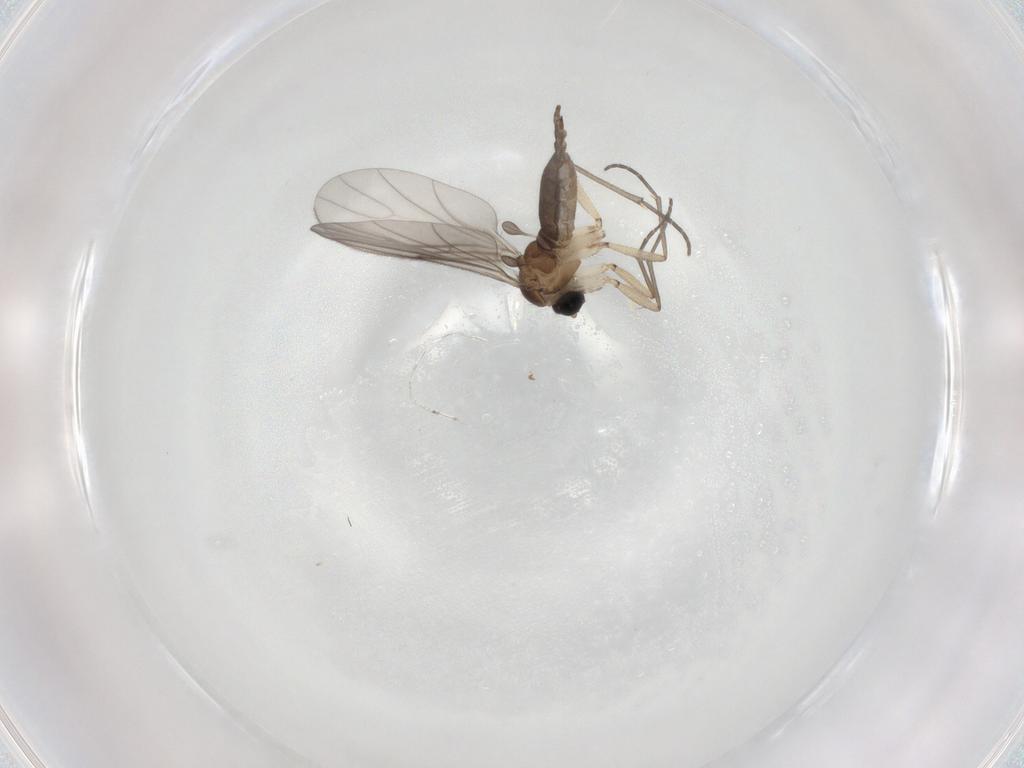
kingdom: Animalia
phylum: Arthropoda
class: Insecta
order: Diptera
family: Sciaridae
